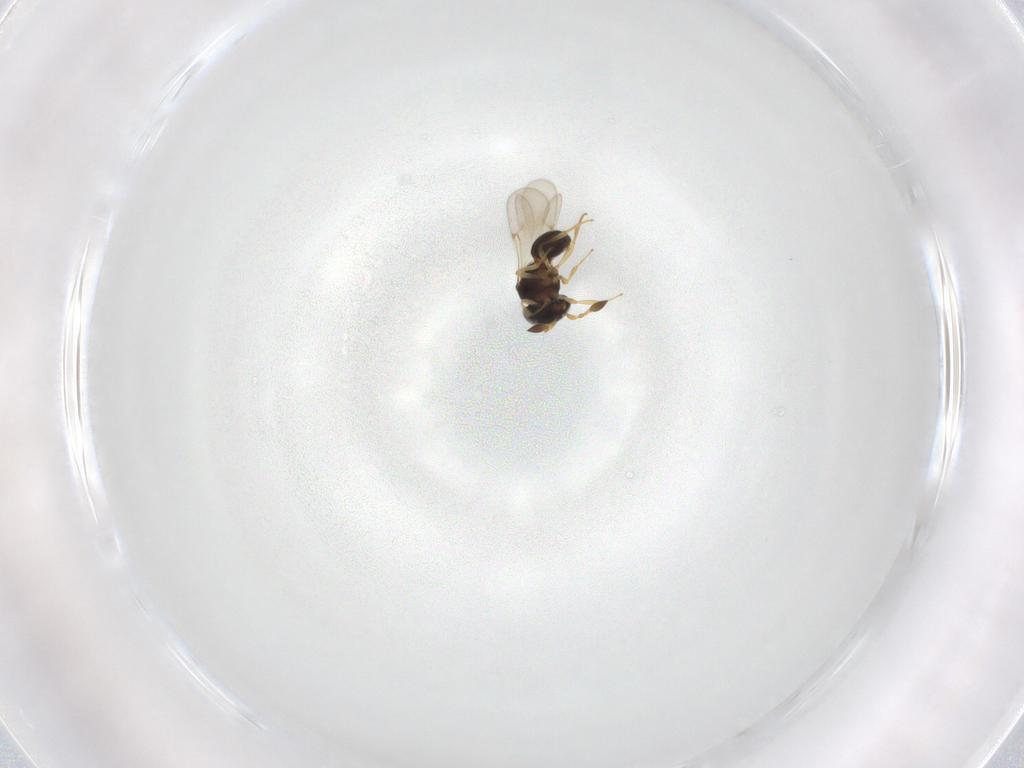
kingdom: Animalia
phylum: Arthropoda
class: Insecta
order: Hymenoptera
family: Scelionidae
